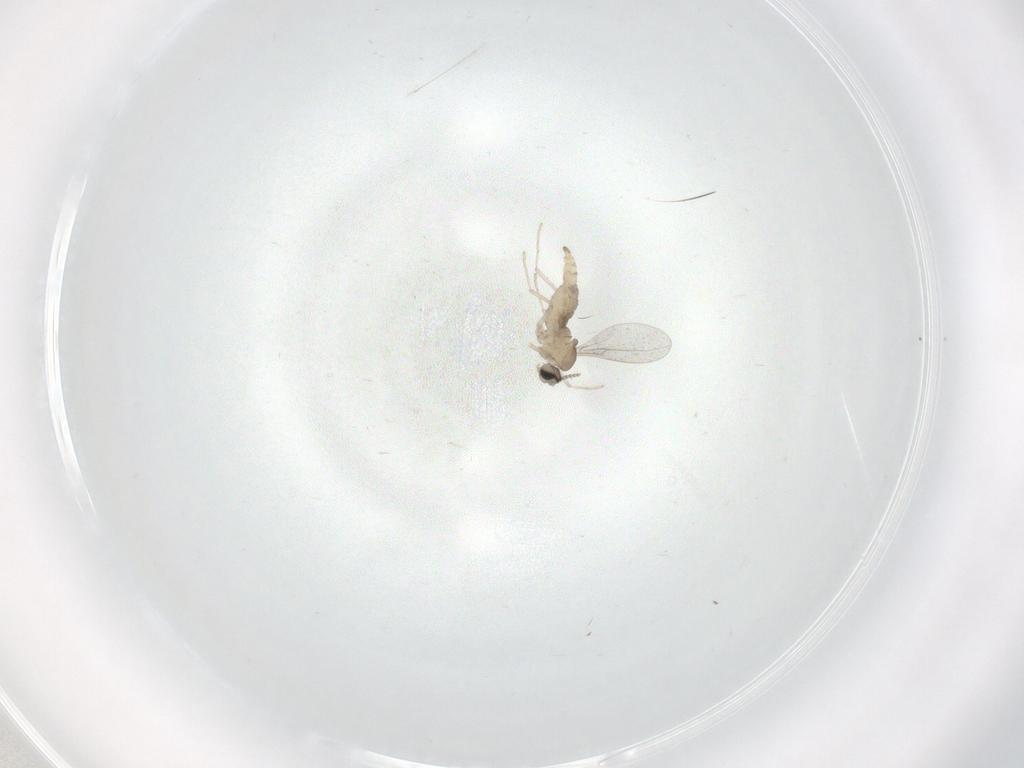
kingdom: Animalia
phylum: Arthropoda
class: Insecta
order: Diptera
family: Cecidomyiidae
